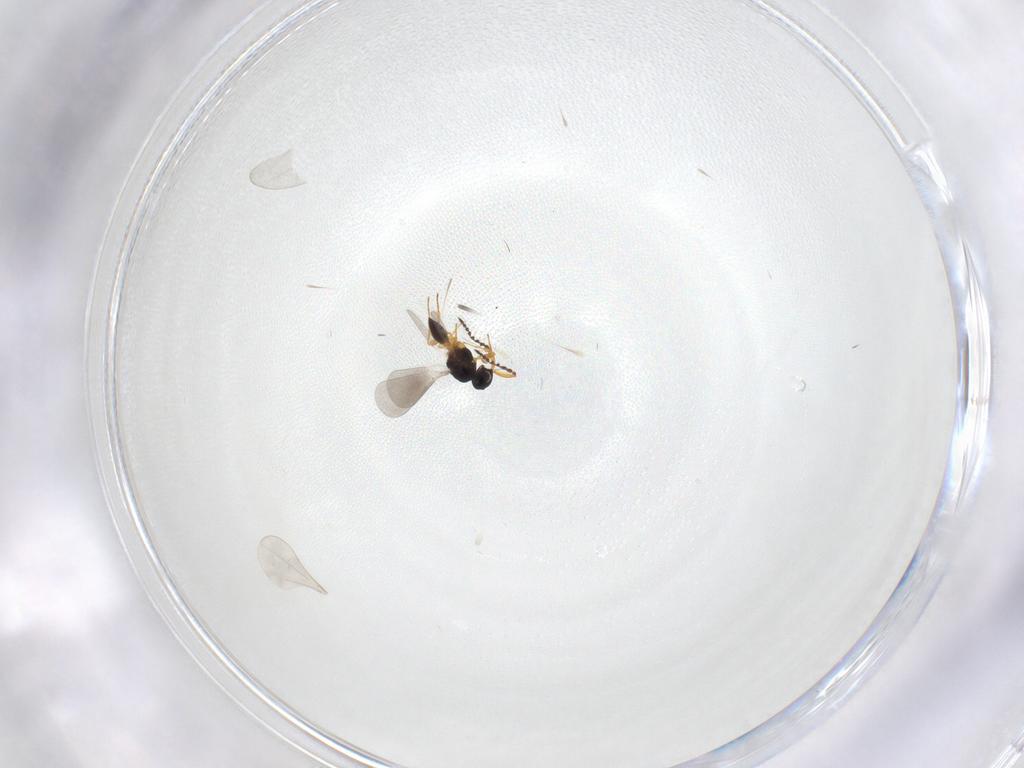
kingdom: Animalia
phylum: Arthropoda
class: Insecta
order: Hymenoptera
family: Platygastridae
